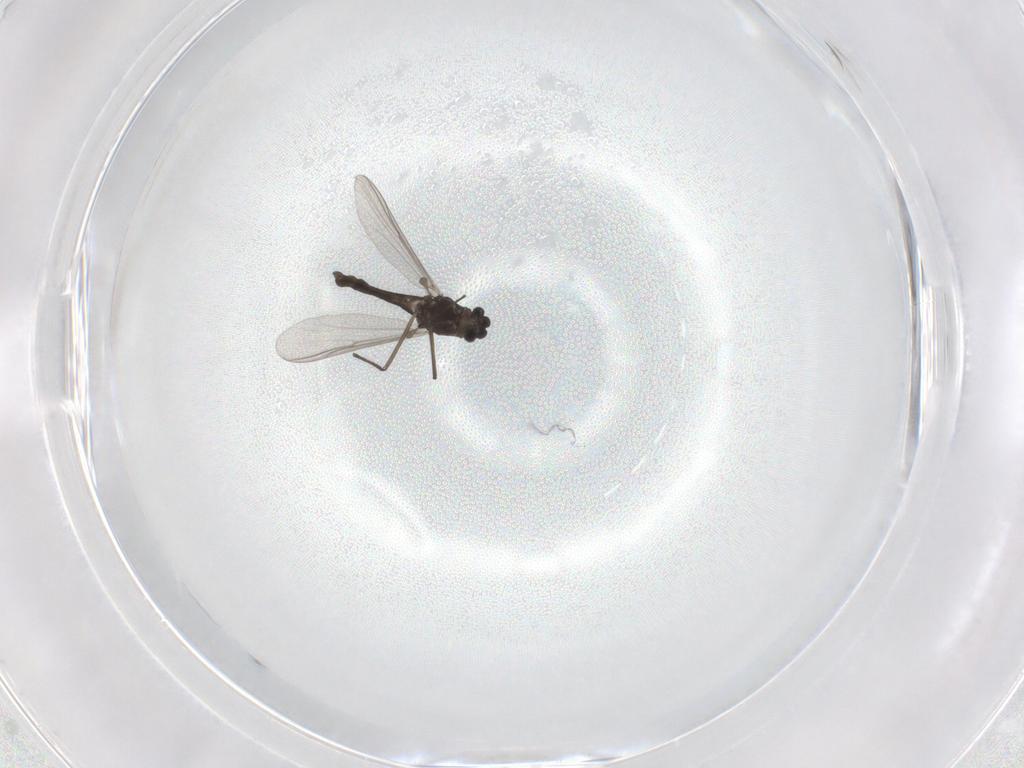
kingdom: Animalia
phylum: Arthropoda
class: Insecta
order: Diptera
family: Chironomidae
